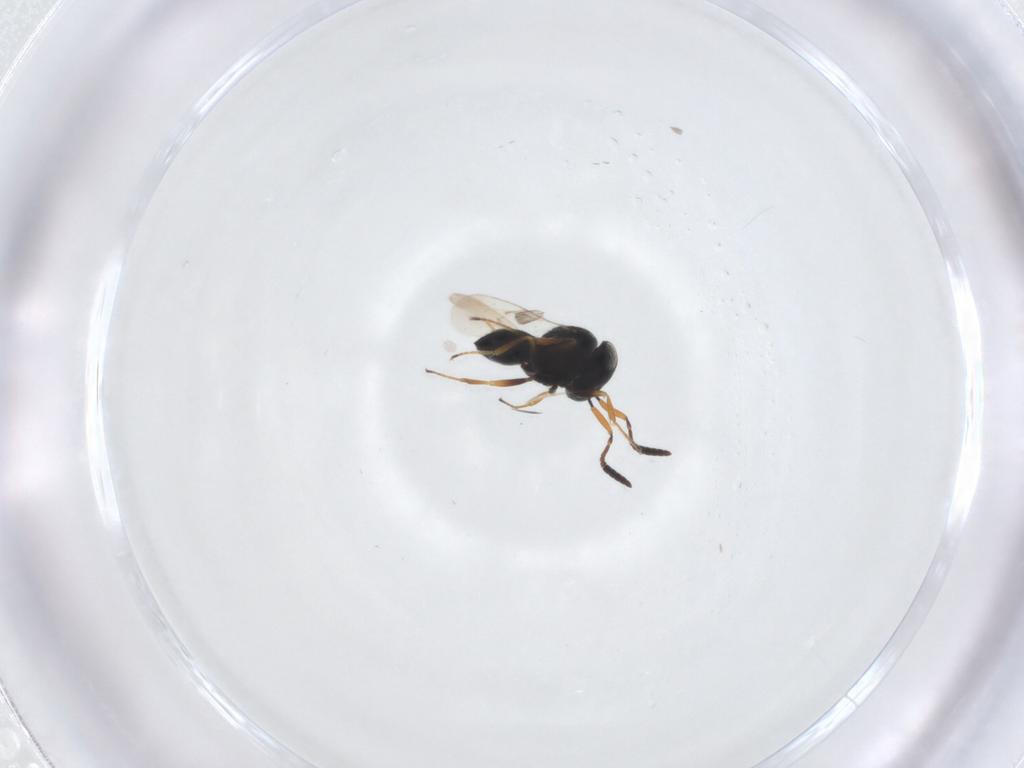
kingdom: Animalia
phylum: Arthropoda
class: Insecta
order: Hymenoptera
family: Scelionidae
